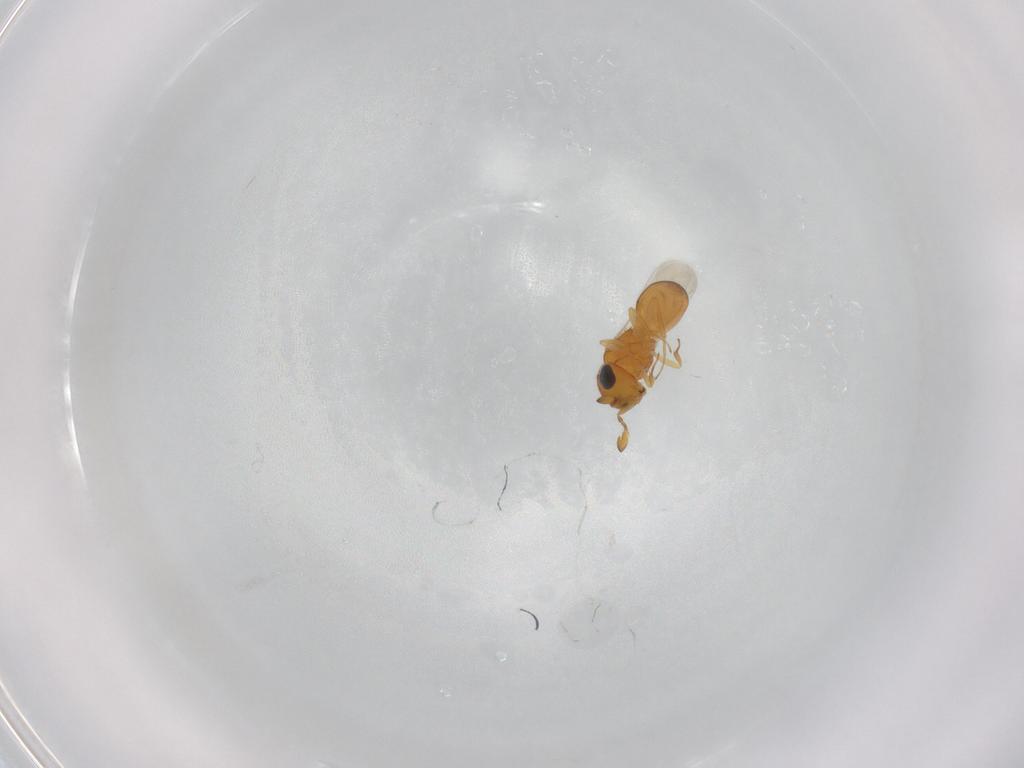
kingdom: Animalia
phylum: Arthropoda
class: Insecta
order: Hymenoptera
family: Scelionidae
